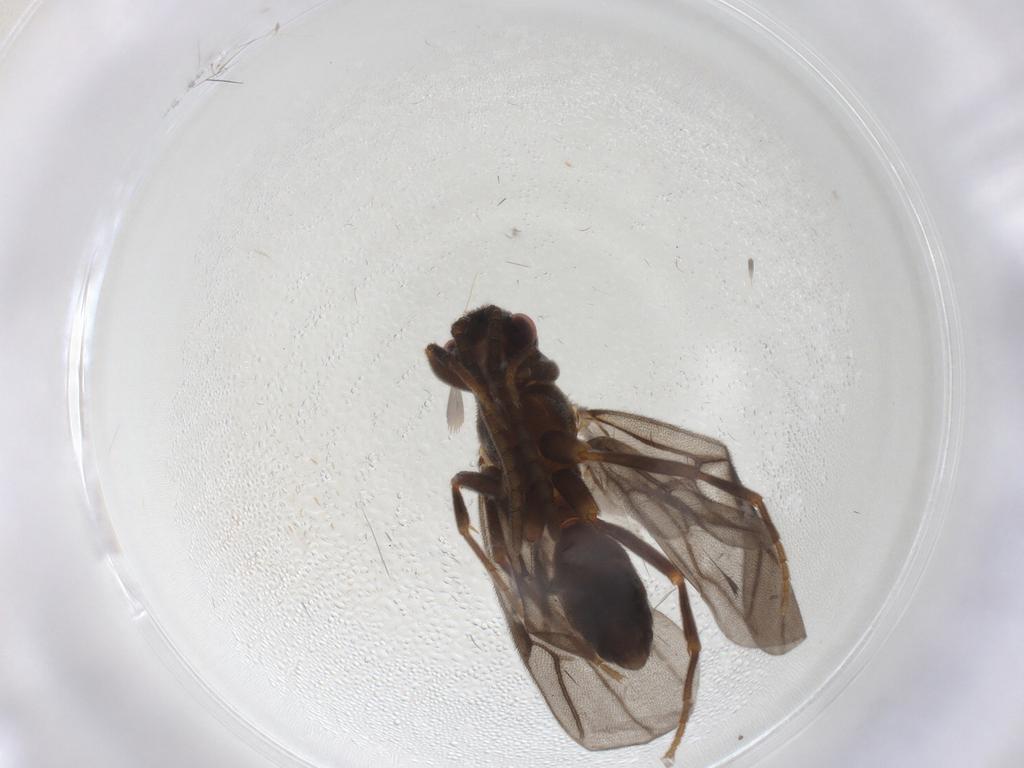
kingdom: Animalia
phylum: Arthropoda
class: Insecta
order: Hymenoptera
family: Formicidae
